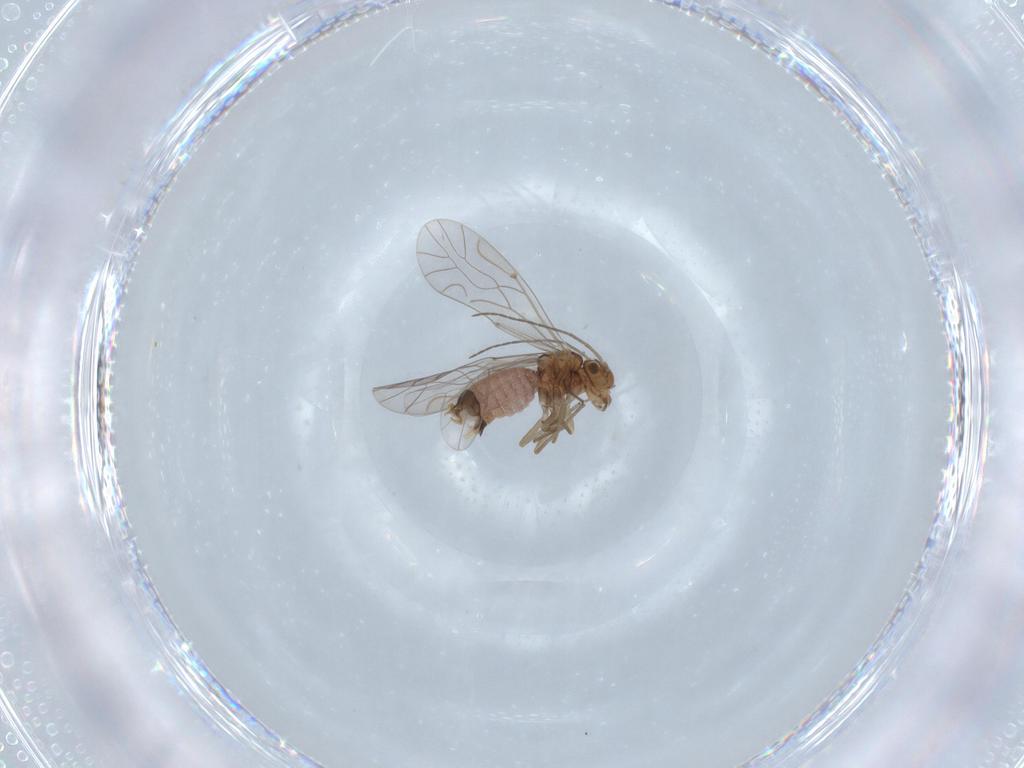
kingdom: Animalia
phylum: Arthropoda
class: Insecta
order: Psocodea
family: Lachesillidae
